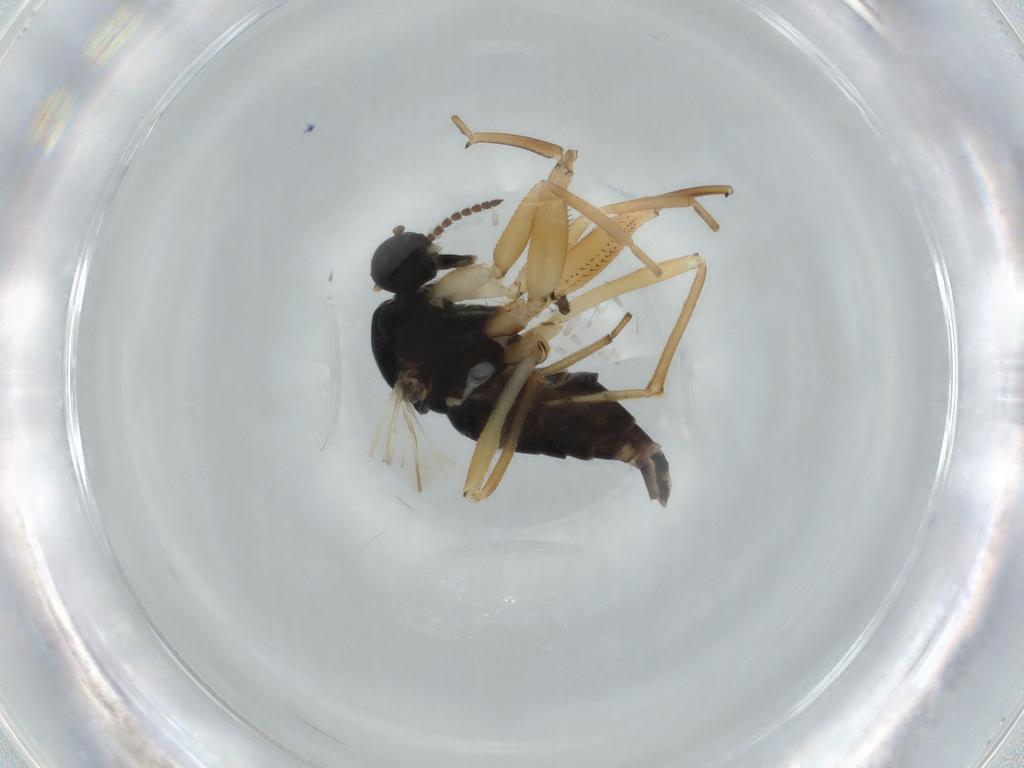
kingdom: Animalia
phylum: Arthropoda
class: Insecta
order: Diptera
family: Hybotidae
